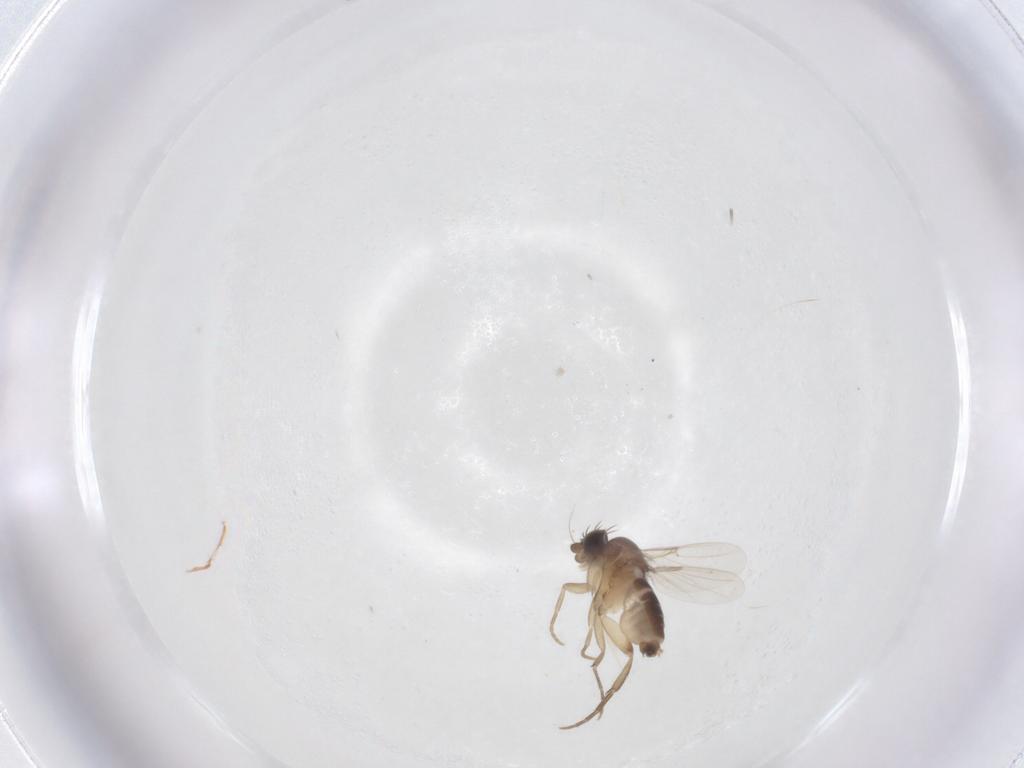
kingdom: Animalia
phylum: Arthropoda
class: Insecta
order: Diptera
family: Phoridae
